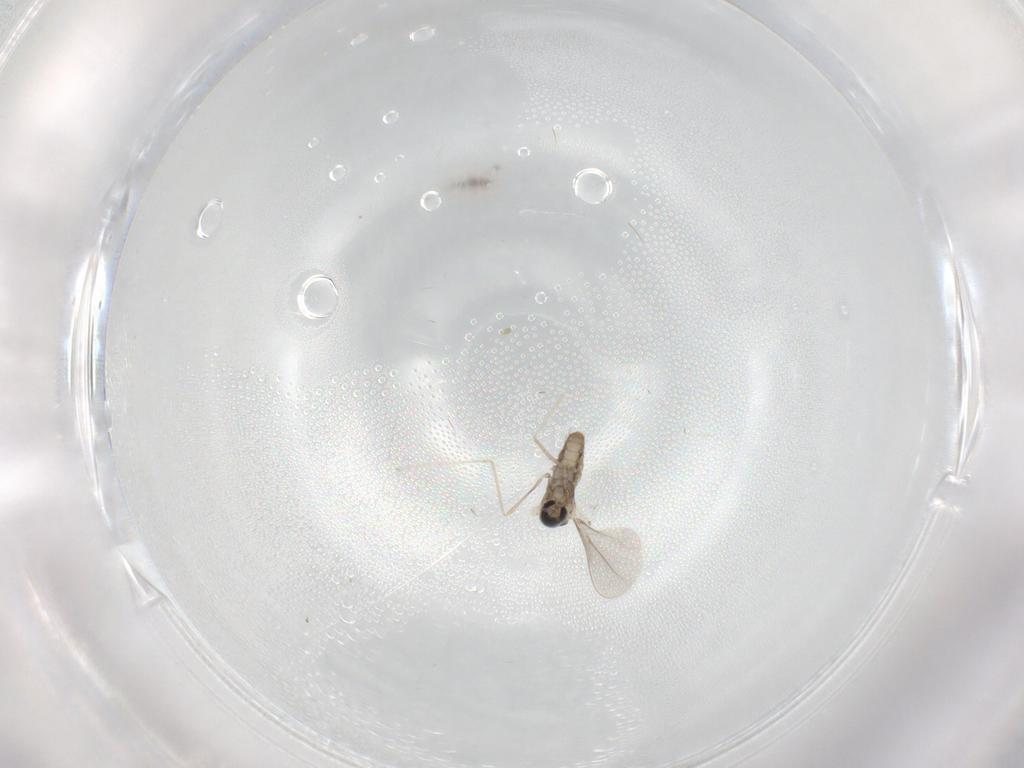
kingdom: Animalia
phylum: Arthropoda
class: Insecta
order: Diptera
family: Cecidomyiidae
